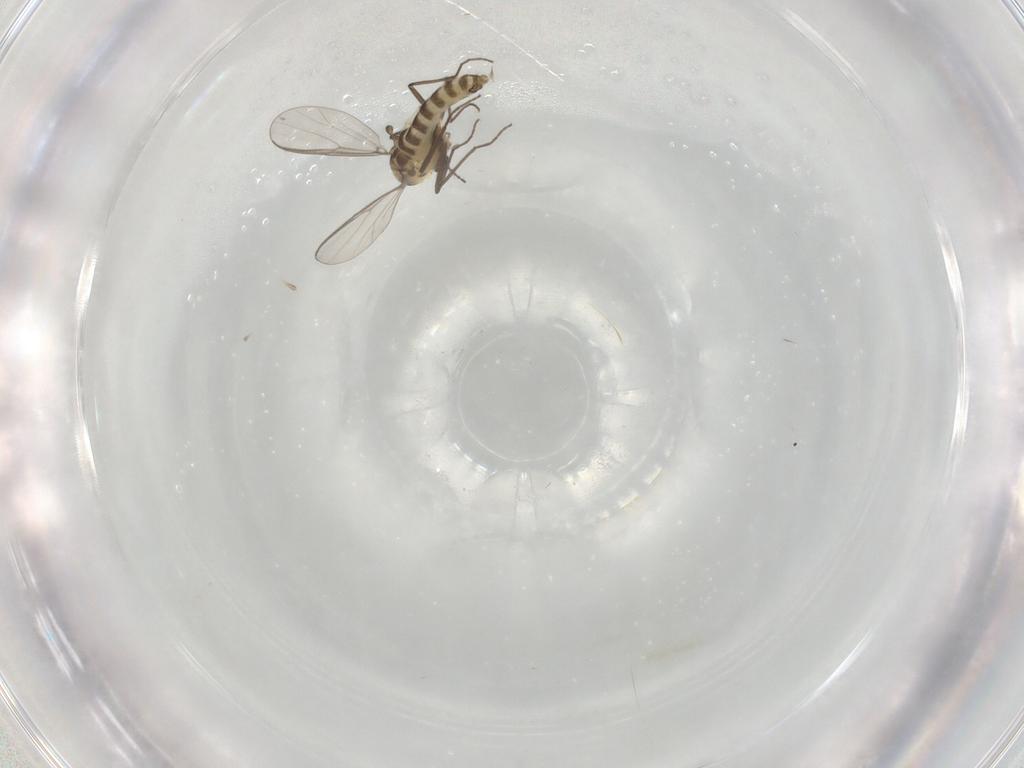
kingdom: Animalia
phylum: Arthropoda
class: Insecta
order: Diptera
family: Chironomidae
